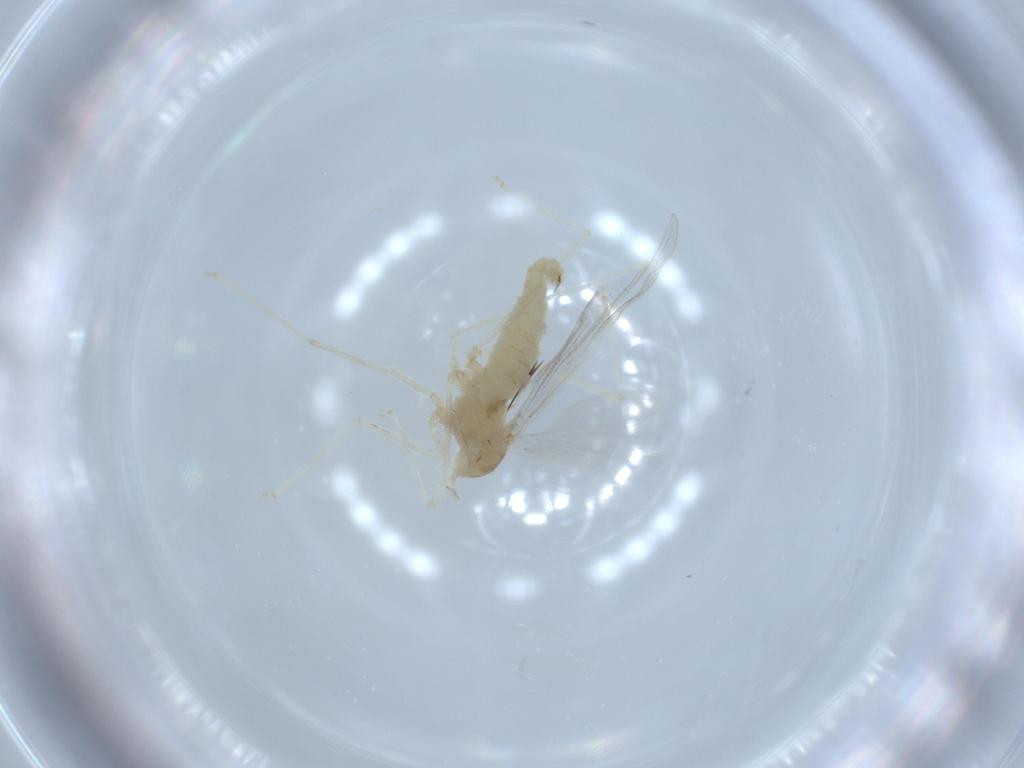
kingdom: Animalia
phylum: Arthropoda
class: Insecta
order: Diptera
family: Cecidomyiidae
